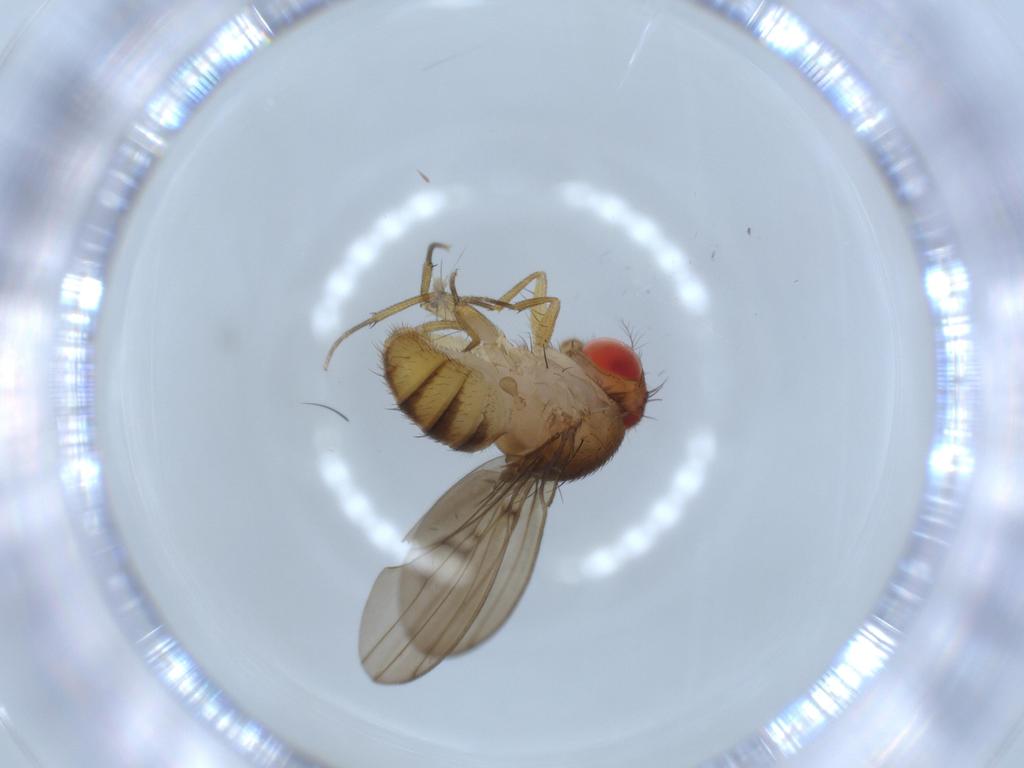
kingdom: Animalia
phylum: Arthropoda
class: Insecta
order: Diptera
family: Drosophilidae
